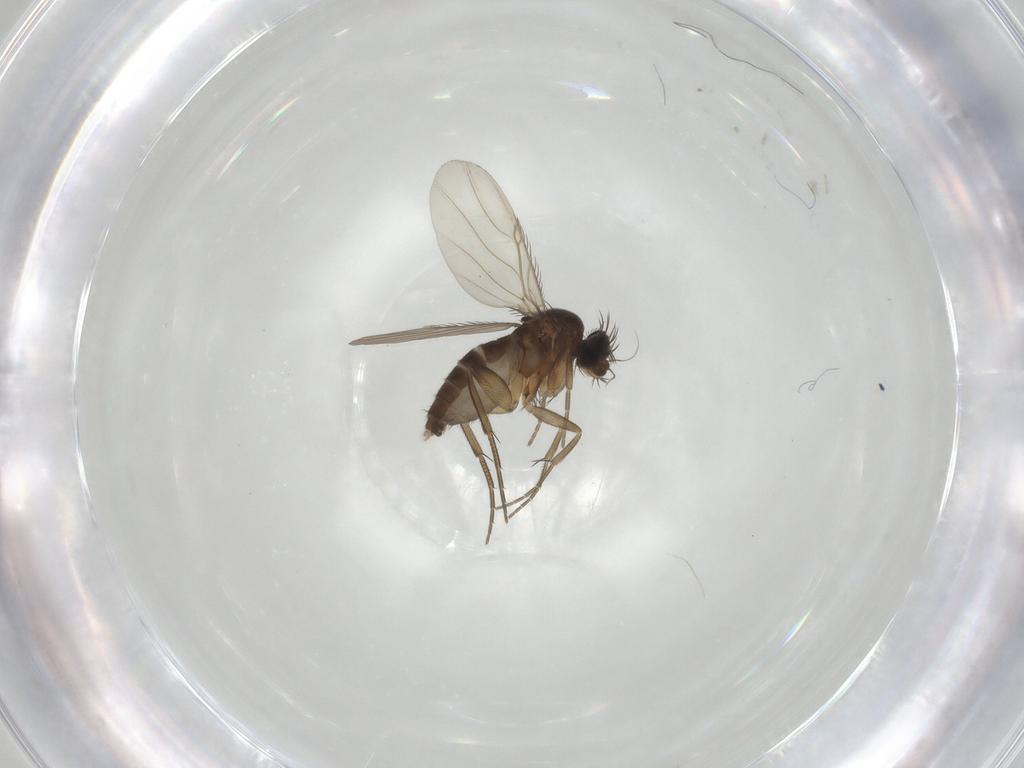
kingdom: Animalia
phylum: Arthropoda
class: Insecta
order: Diptera
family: Phoridae
